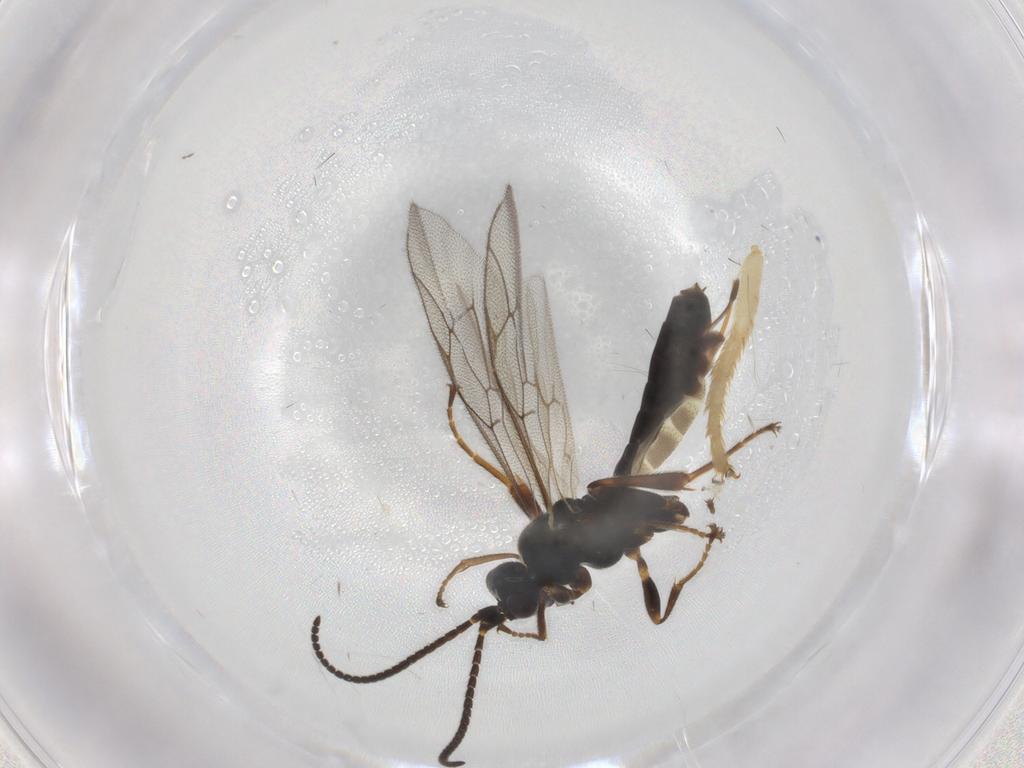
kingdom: Animalia
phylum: Arthropoda
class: Insecta
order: Hymenoptera
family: Ichneumonidae
